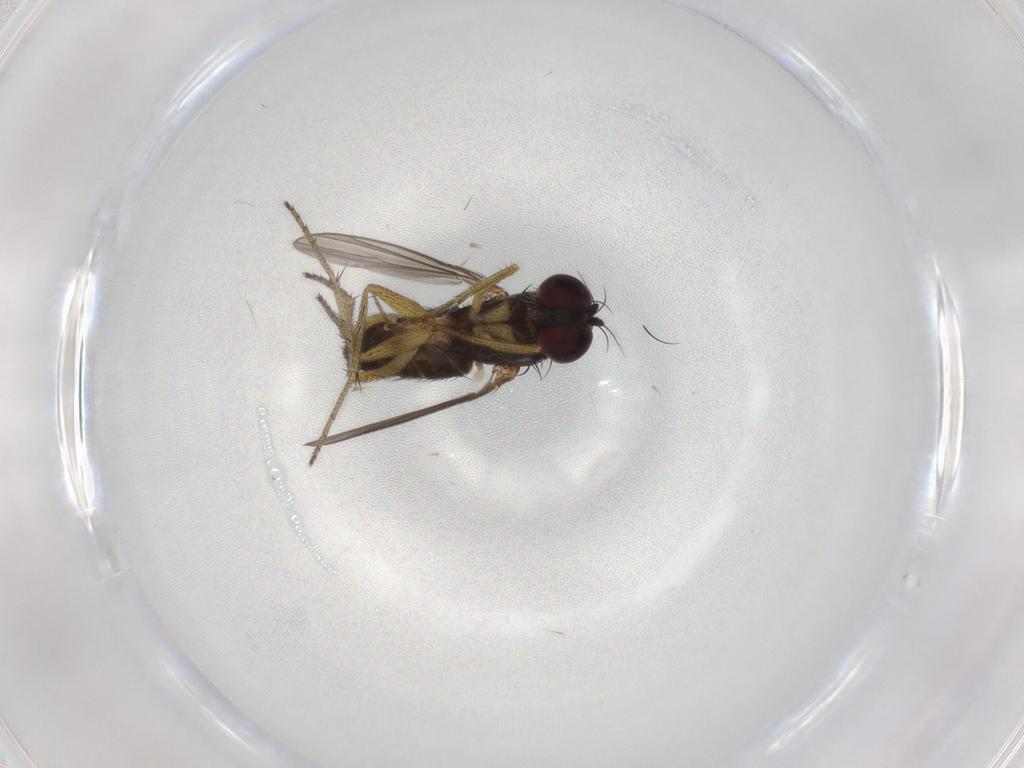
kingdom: Animalia
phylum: Arthropoda
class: Insecta
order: Diptera
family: Dolichopodidae
